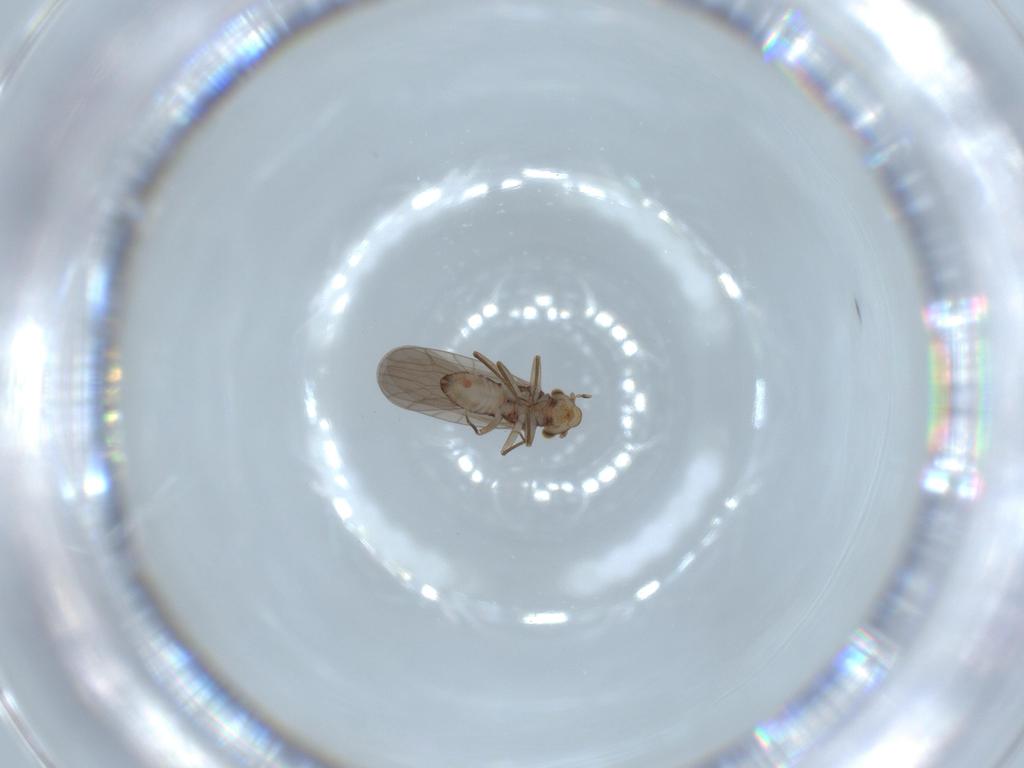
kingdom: Animalia
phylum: Arthropoda
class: Insecta
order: Psocodea
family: Lepidopsocidae
